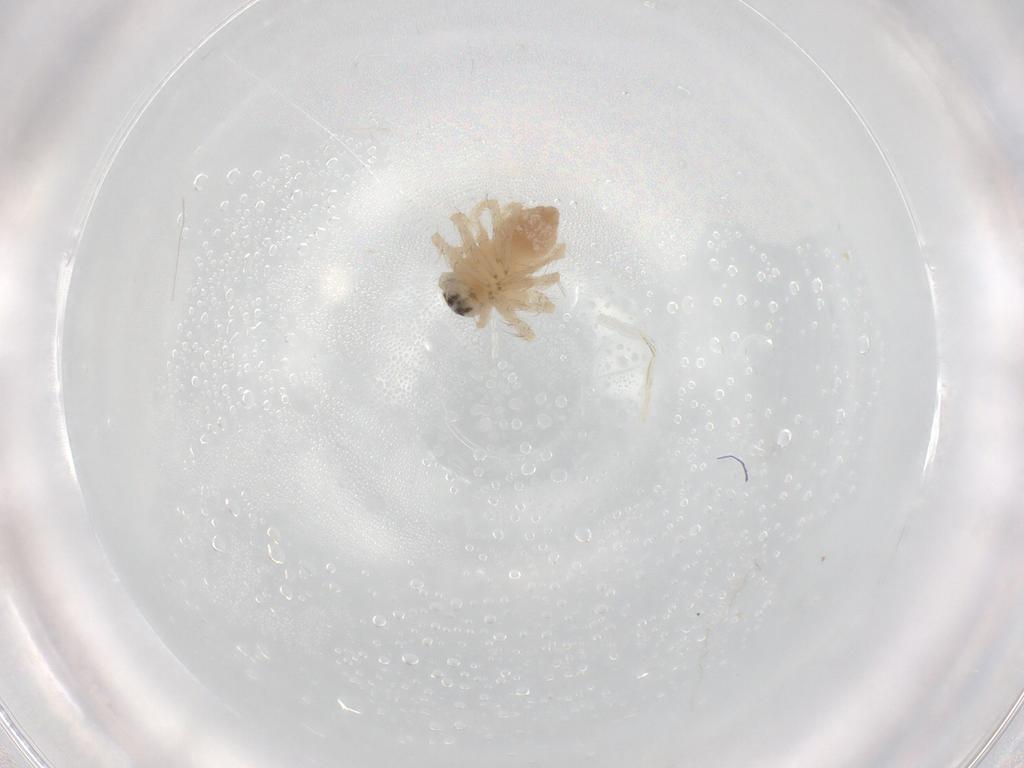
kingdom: Animalia
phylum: Arthropoda
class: Arachnida
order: Araneae
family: Oxyopidae
